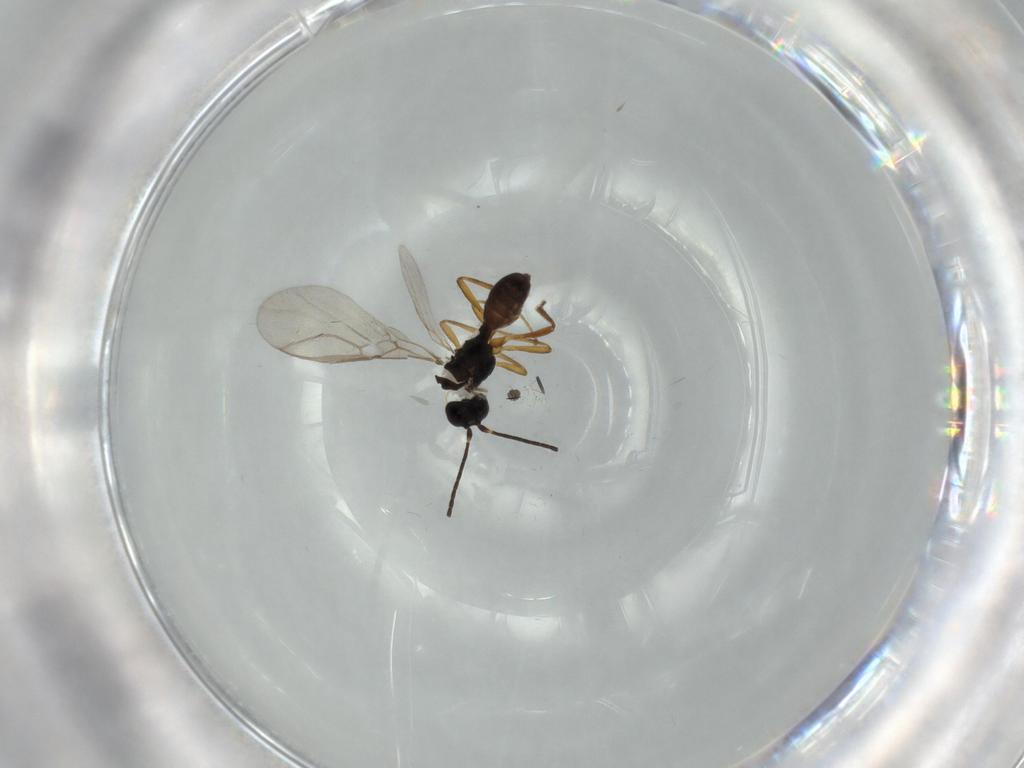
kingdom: Animalia
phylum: Arthropoda
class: Insecta
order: Hymenoptera
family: Braconidae
